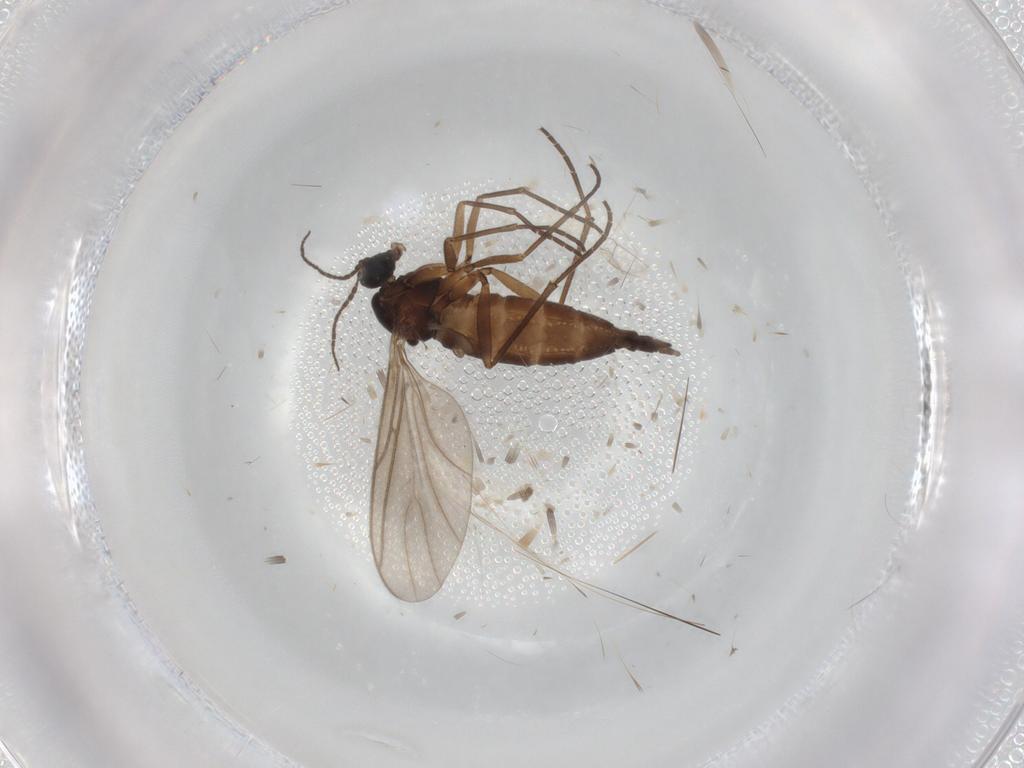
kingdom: Animalia
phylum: Arthropoda
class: Insecta
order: Diptera
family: Sciaridae
